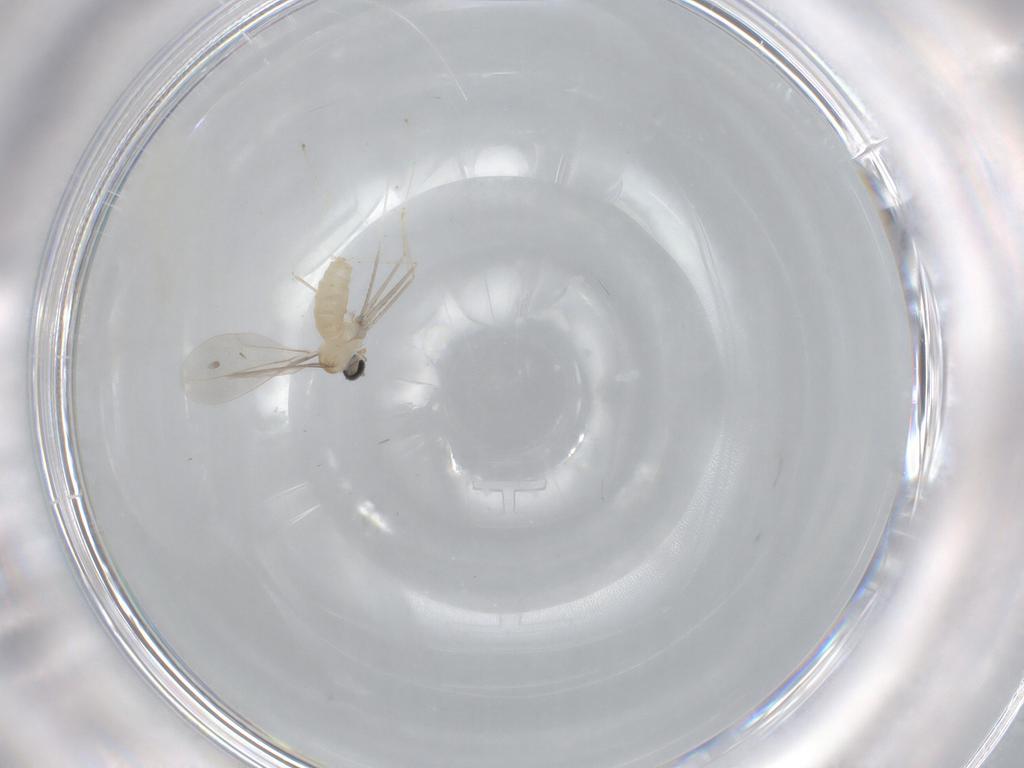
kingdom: Animalia
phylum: Arthropoda
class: Insecta
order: Diptera
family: Cecidomyiidae
